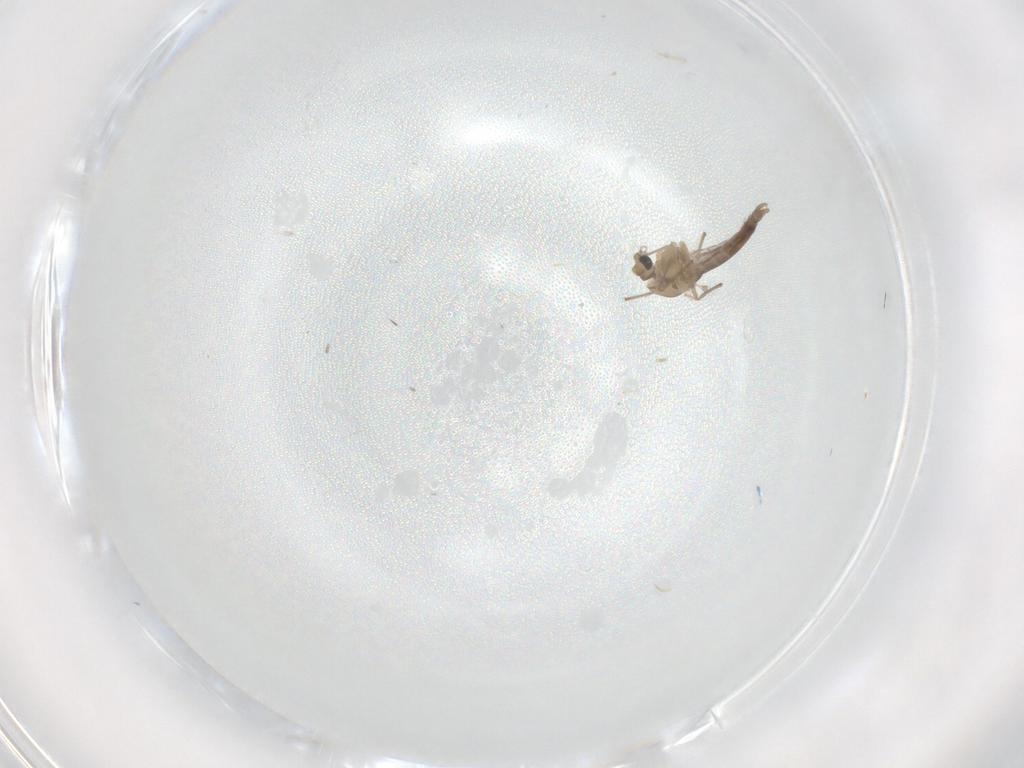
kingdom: Animalia
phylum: Arthropoda
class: Insecta
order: Diptera
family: Chironomidae
